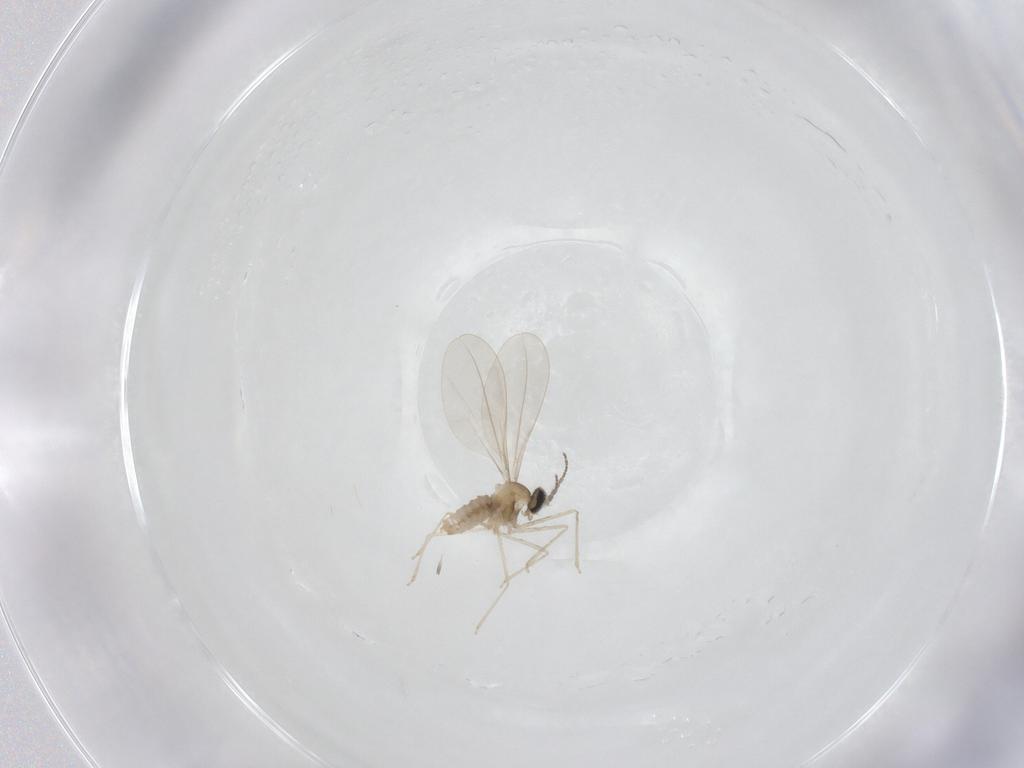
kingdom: Animalia
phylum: Arthropoda
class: Insecta
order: Diptera
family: Cecidomyiidae
